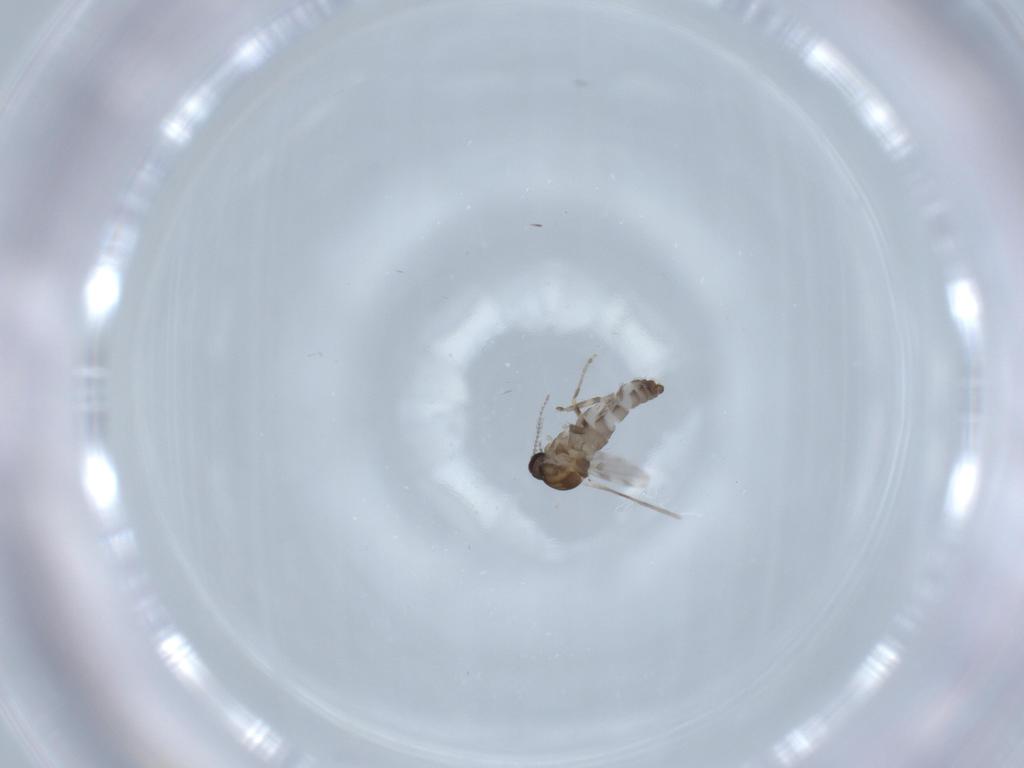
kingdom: Animalia
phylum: Arthropoda
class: Insecta
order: Diptera
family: Ceratopogonidae
